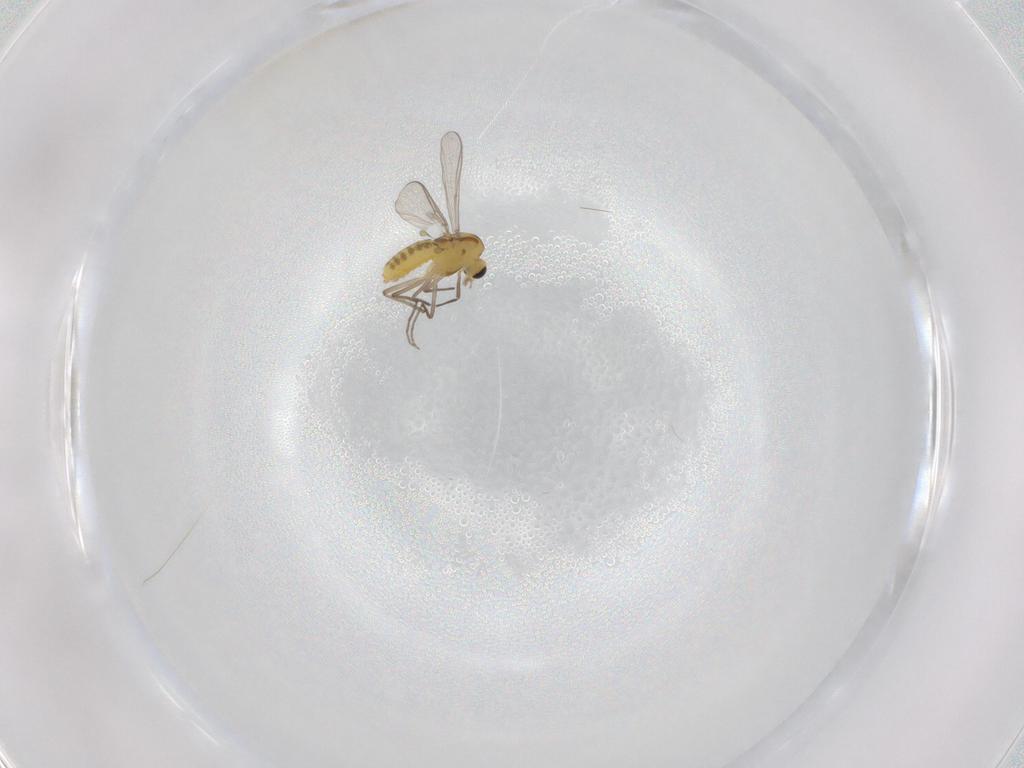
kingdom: Animalia
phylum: Arthropoda
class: Insecta
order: Diptera
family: Chironomidae
